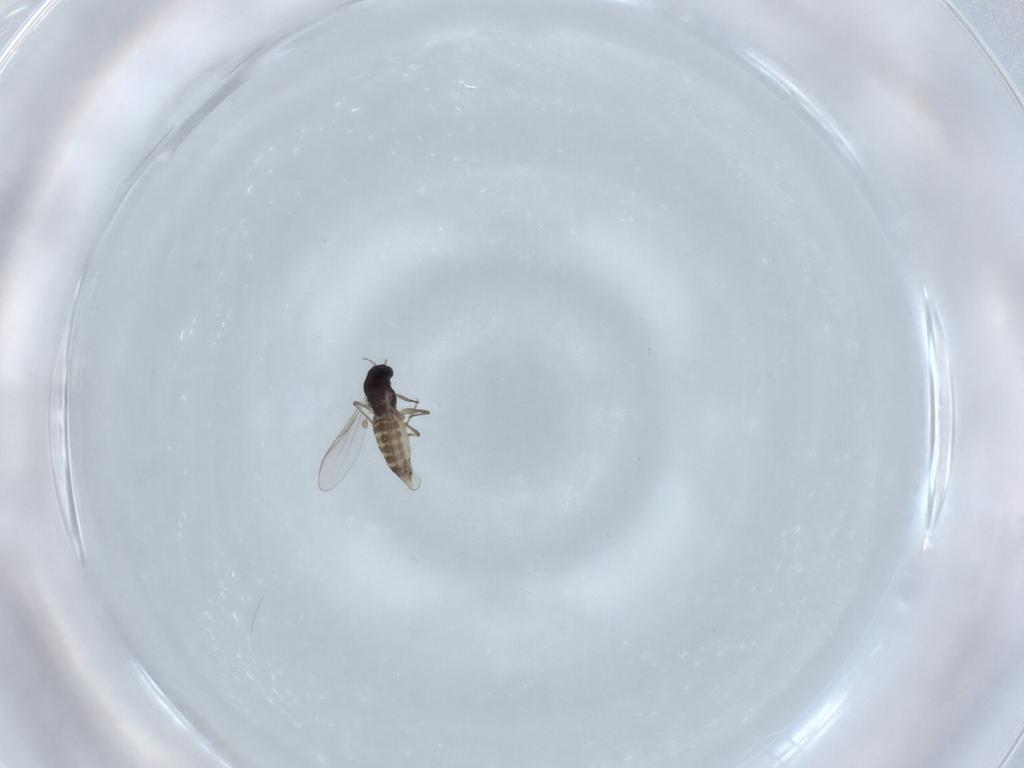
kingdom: Animalia
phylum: Arthropoda
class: Insecta
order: Diptera
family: Chironomidae
